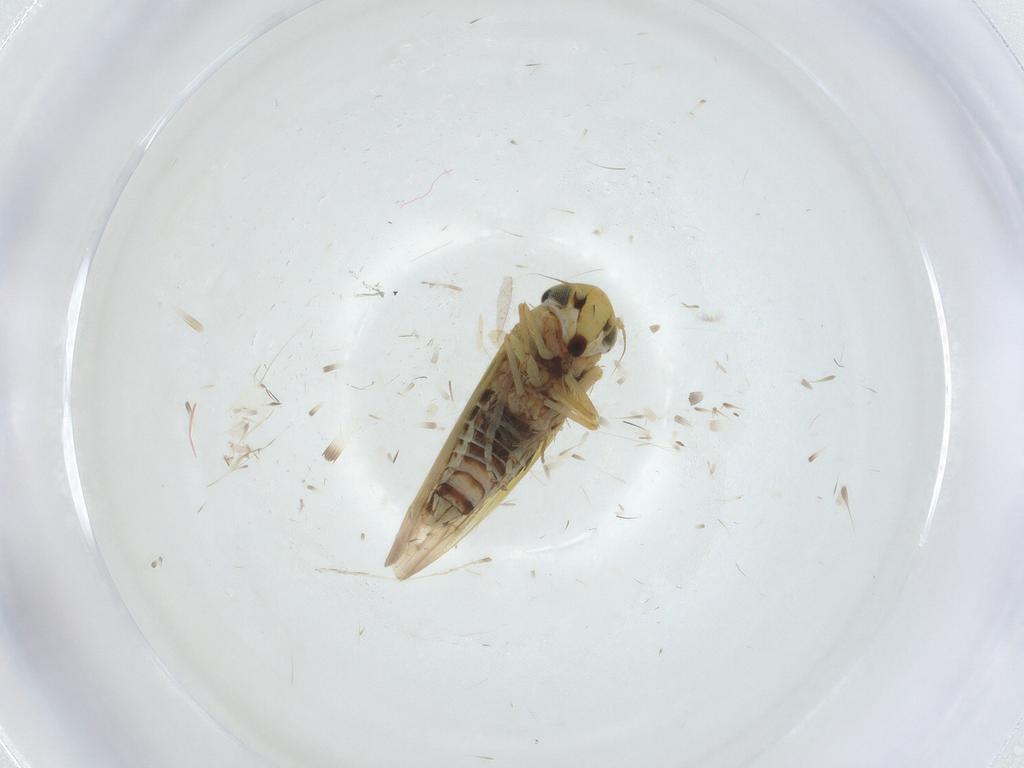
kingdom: Animalia
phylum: Arthropoda
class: Insecta
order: Hemiptera
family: Cicadellidae
